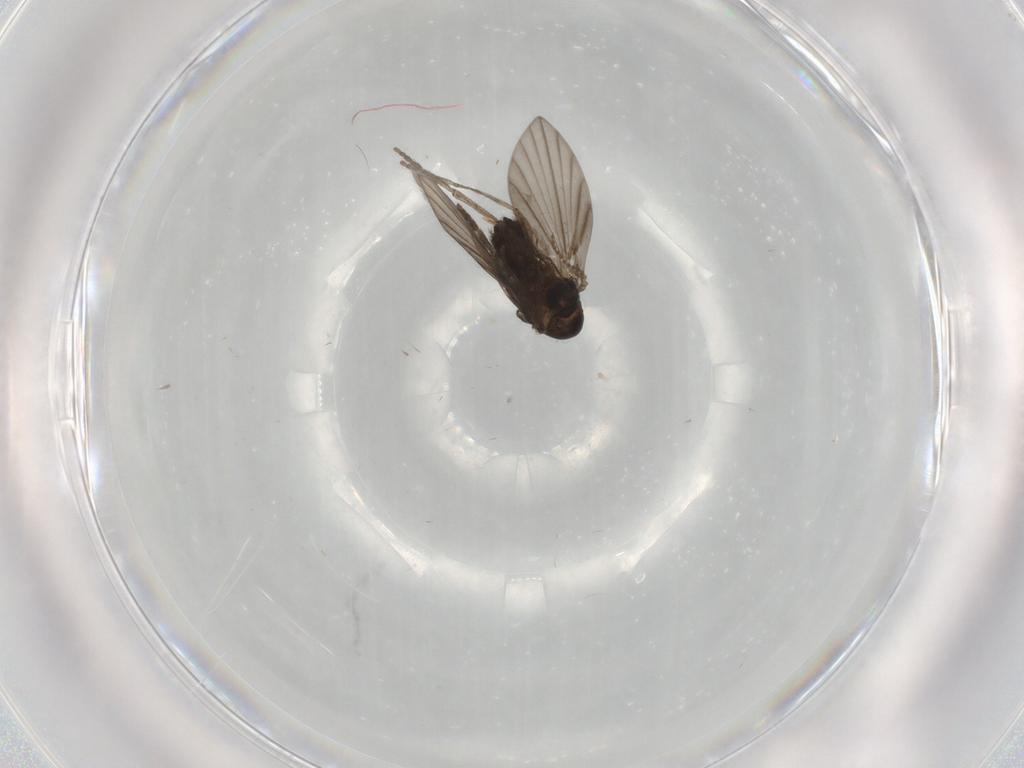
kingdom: Animalia
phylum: Arthropoda
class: Insecta
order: Diptera
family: Psychodidae
